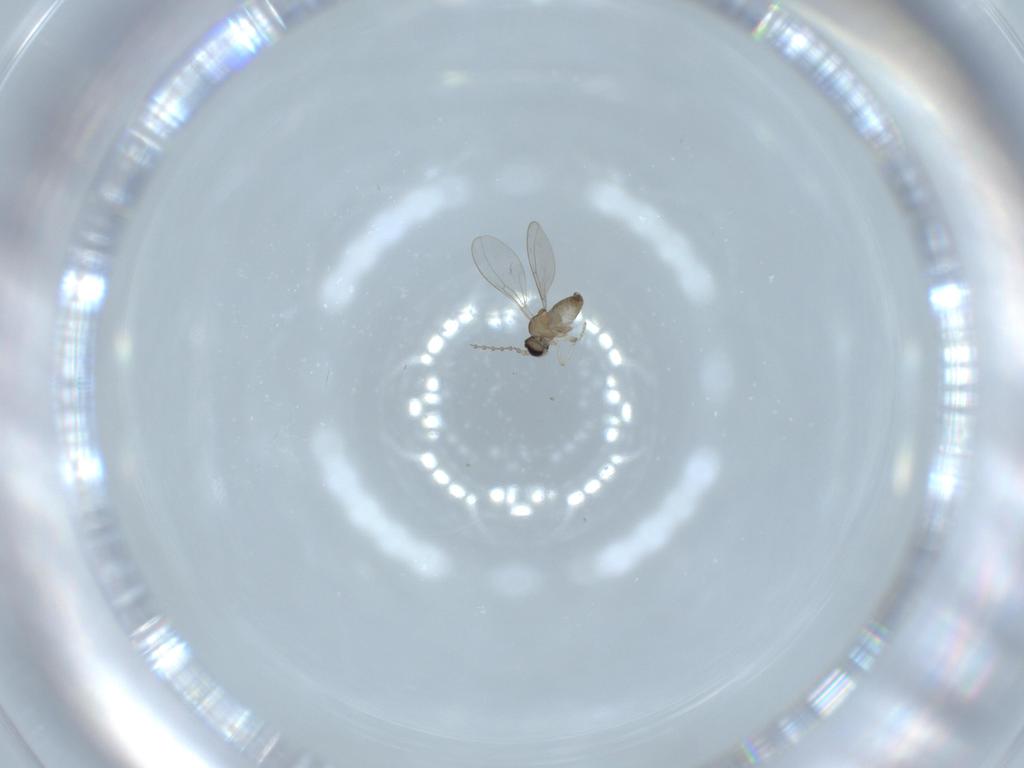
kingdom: Animalia
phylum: Arthropoda
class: Insecta
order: Diptera
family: Cecidomyiidae
